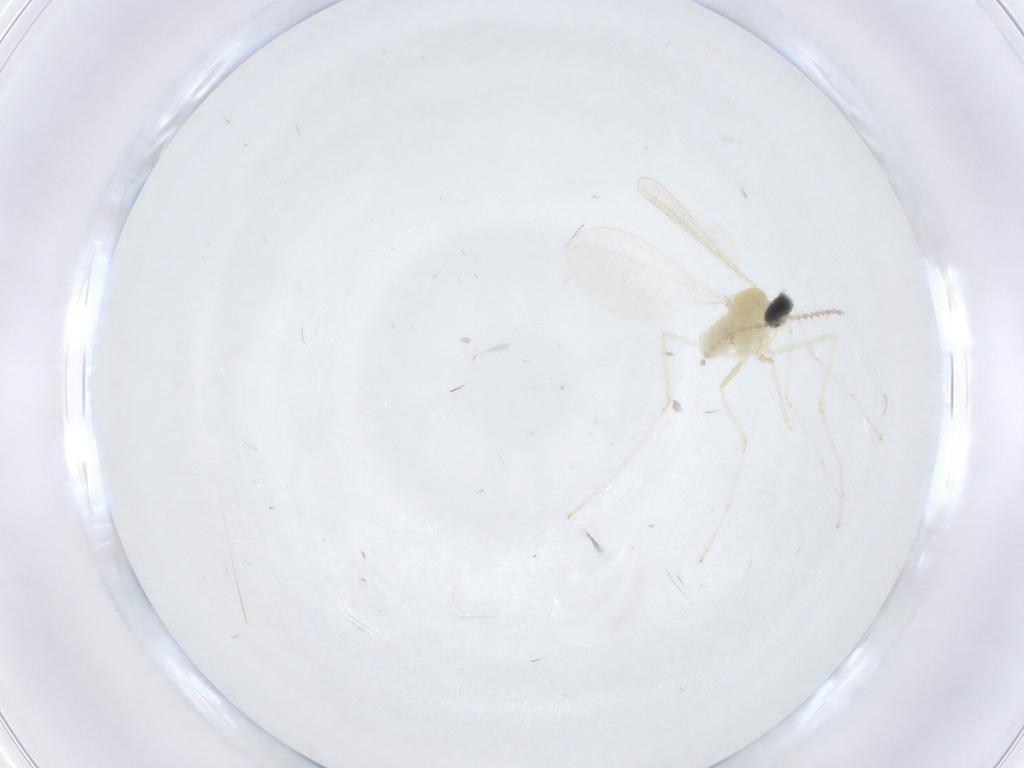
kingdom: Animalia
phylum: Arthropoda
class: Insecta
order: Diptera
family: Cecidomyiidae
